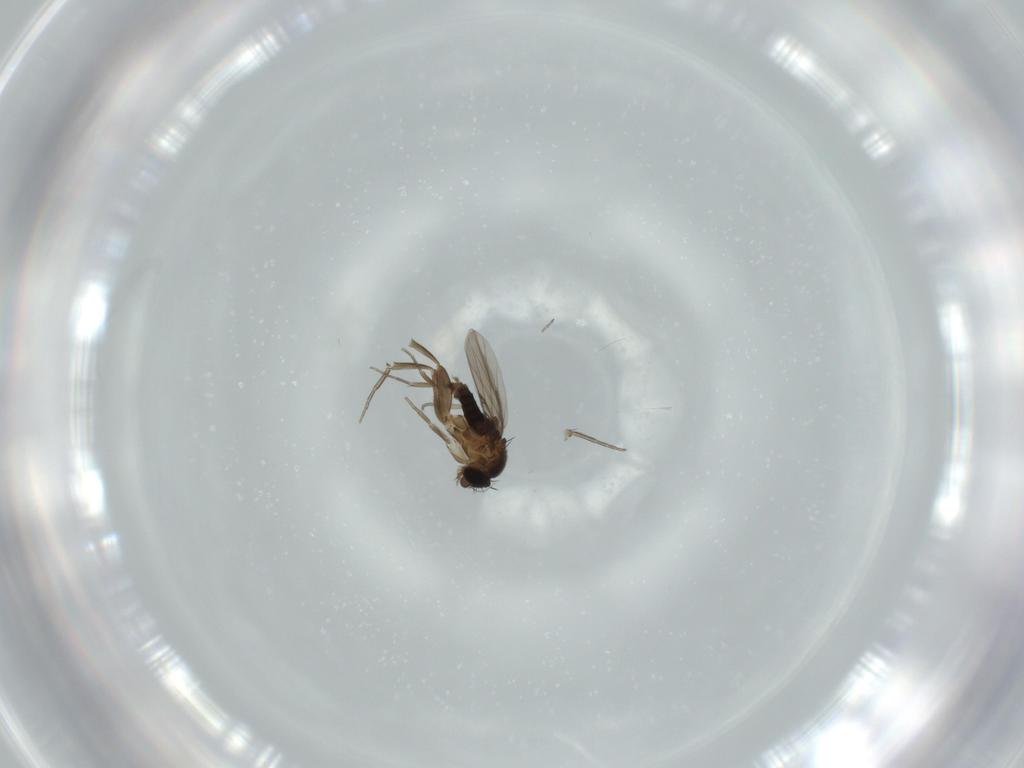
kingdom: Animalia
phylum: Arthropoda
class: Insecta
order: Diptera
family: Phoridae
